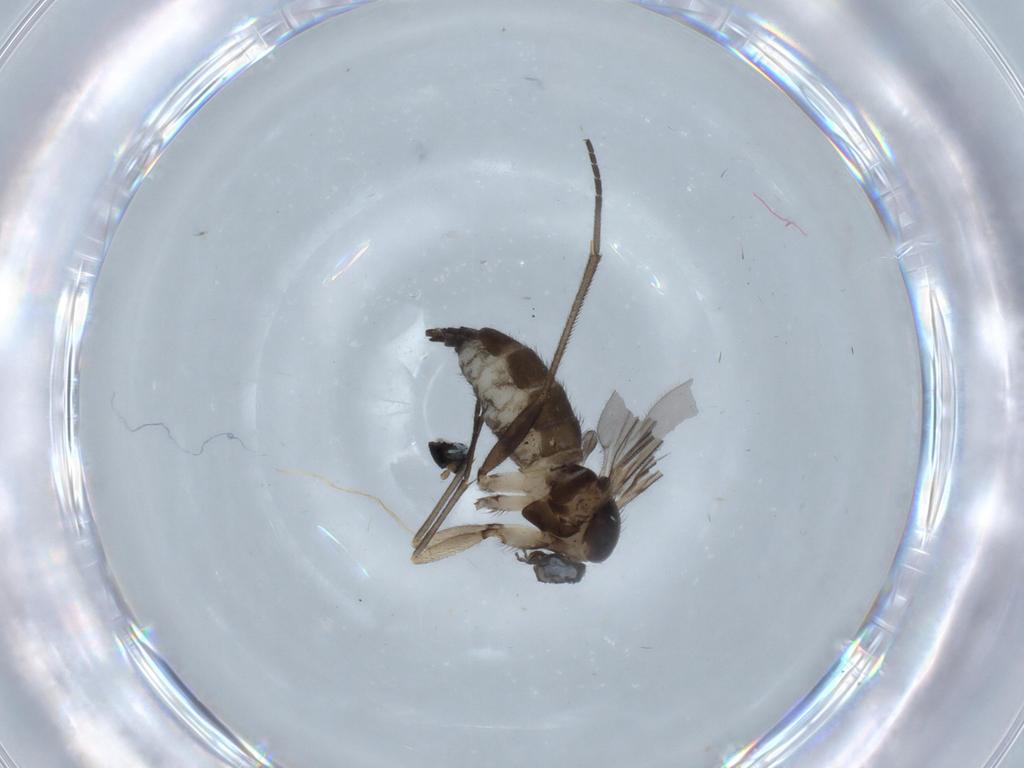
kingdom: Animalia
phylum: Arthropoda
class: Insecta
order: Diptera
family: Sciaridae
